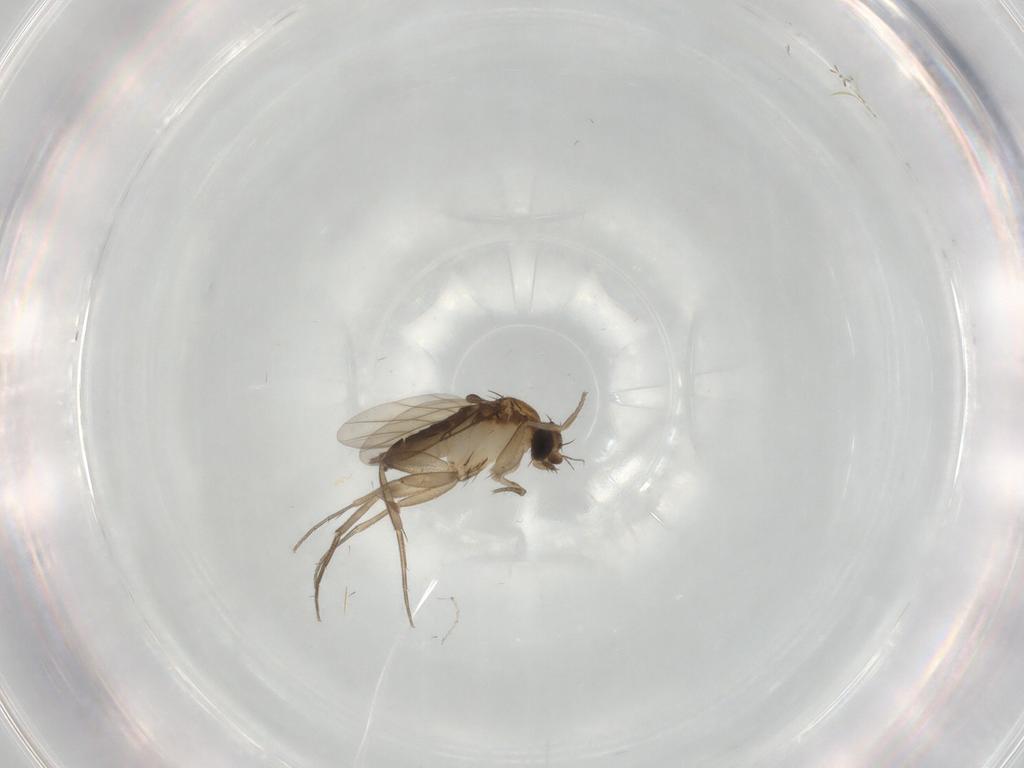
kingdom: Animalia
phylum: Arthropoda
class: Insecta
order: Diptera
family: Phoridae
